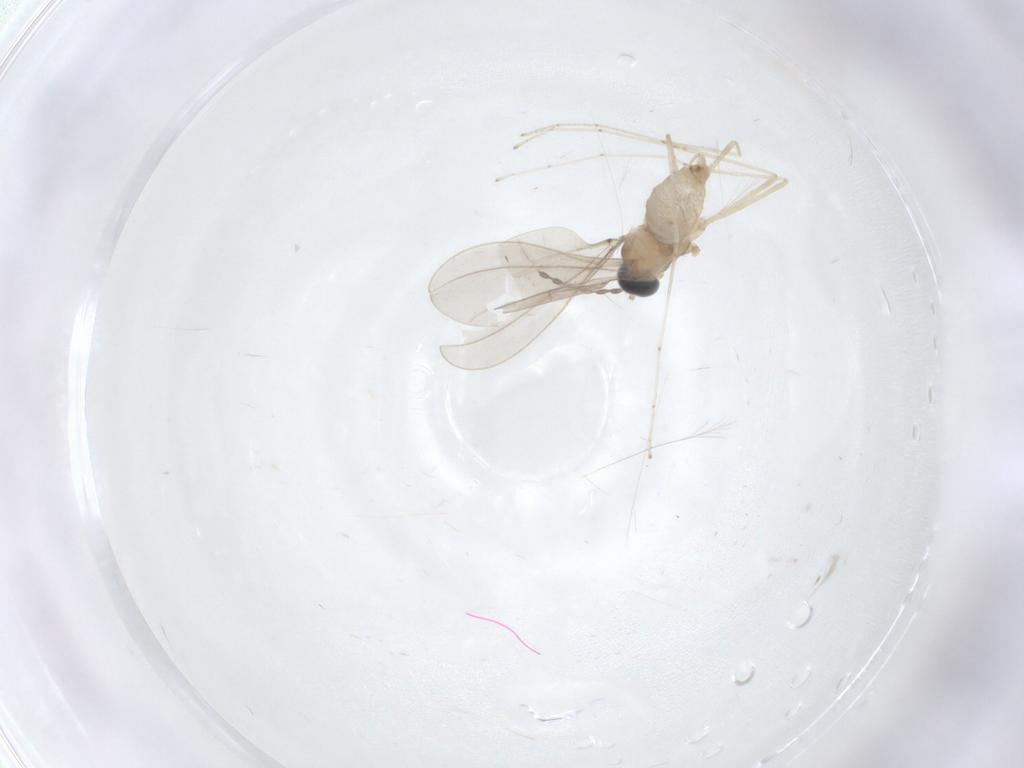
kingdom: Animalia
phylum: Arthropoda
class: Insecta
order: Diptera
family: Cecidomyiidae
